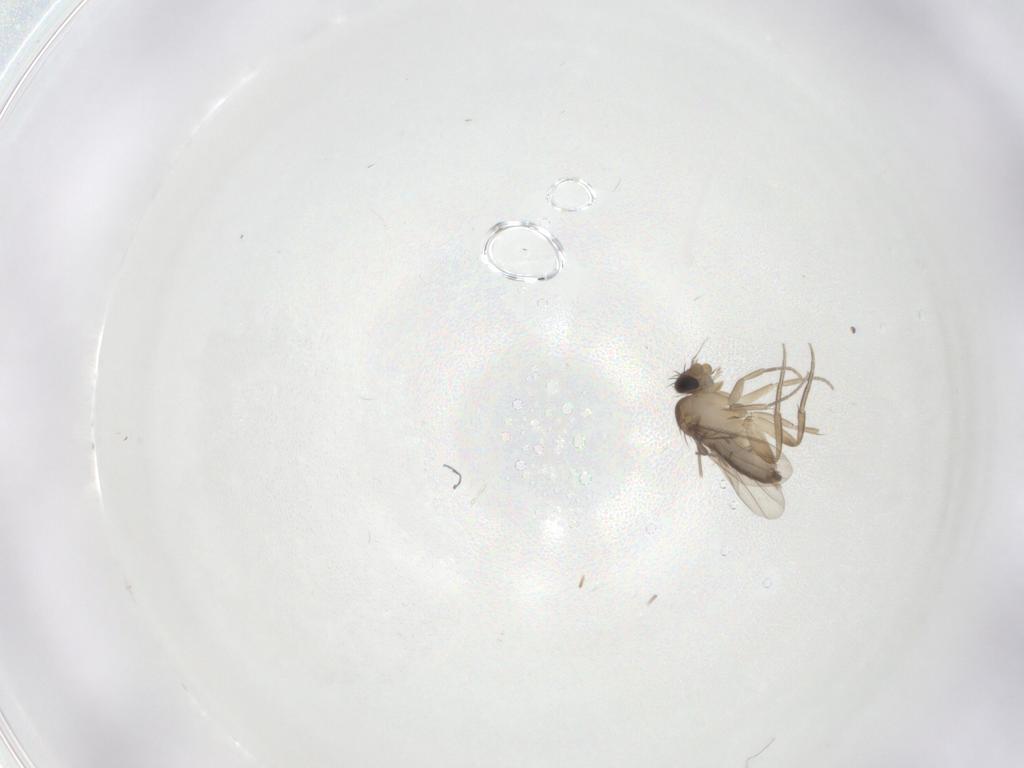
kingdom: Animalia
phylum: Arthropoda
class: Insecta
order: Diptera
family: Phoridae
